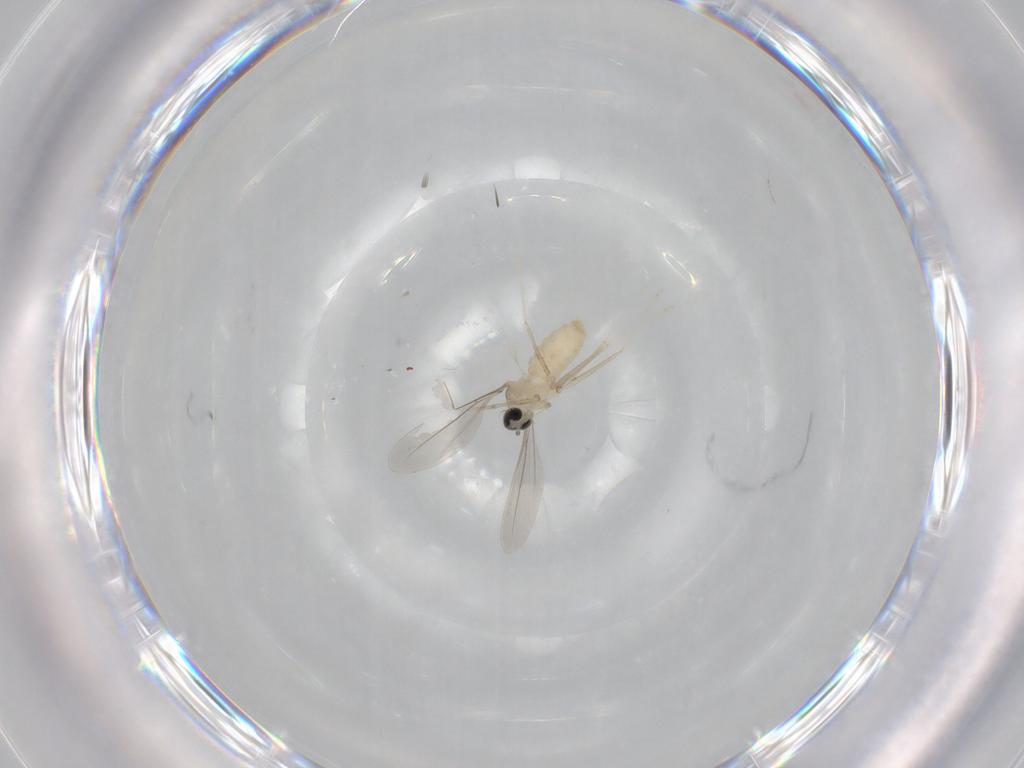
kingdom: Animalia
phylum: Arthropoda
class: Insecta
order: Diptera
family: Cecidomyiidae
